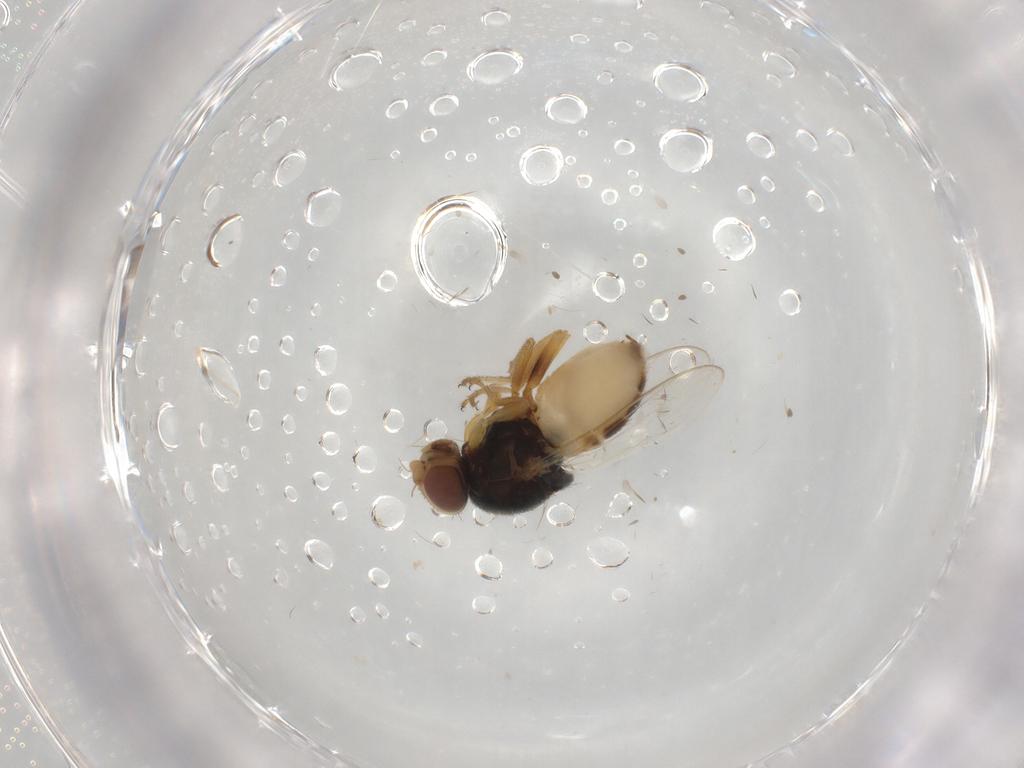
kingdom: Animalia
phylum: Arthropoda
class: Insecta
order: Diptera
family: Chloropidae
